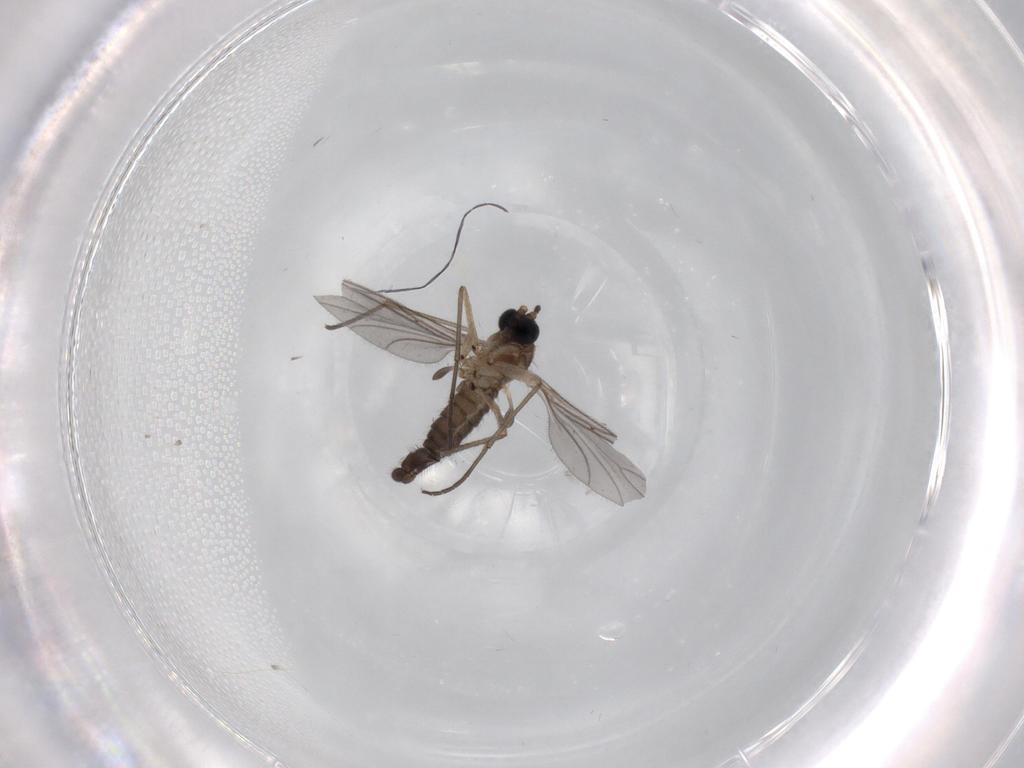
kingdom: Animalia
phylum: Arthropoda
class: Insecta
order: Diptera
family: Sciaridae
